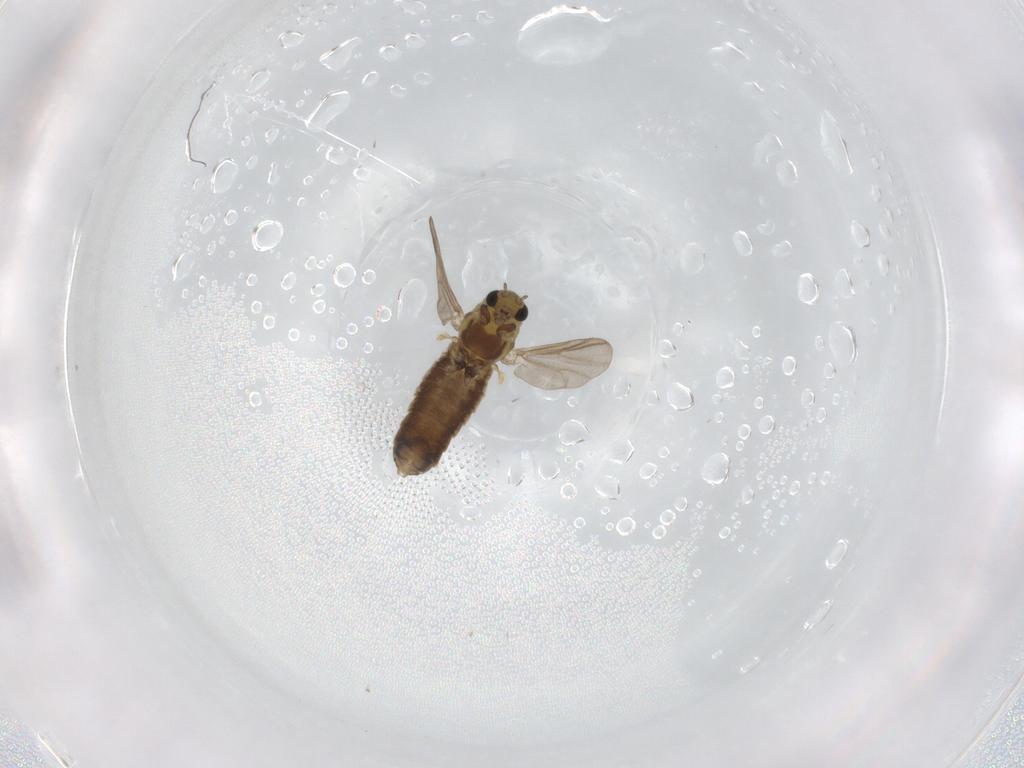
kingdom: Animalia
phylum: Arthropoda
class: Insecta
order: Diptera
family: Chironomidae
